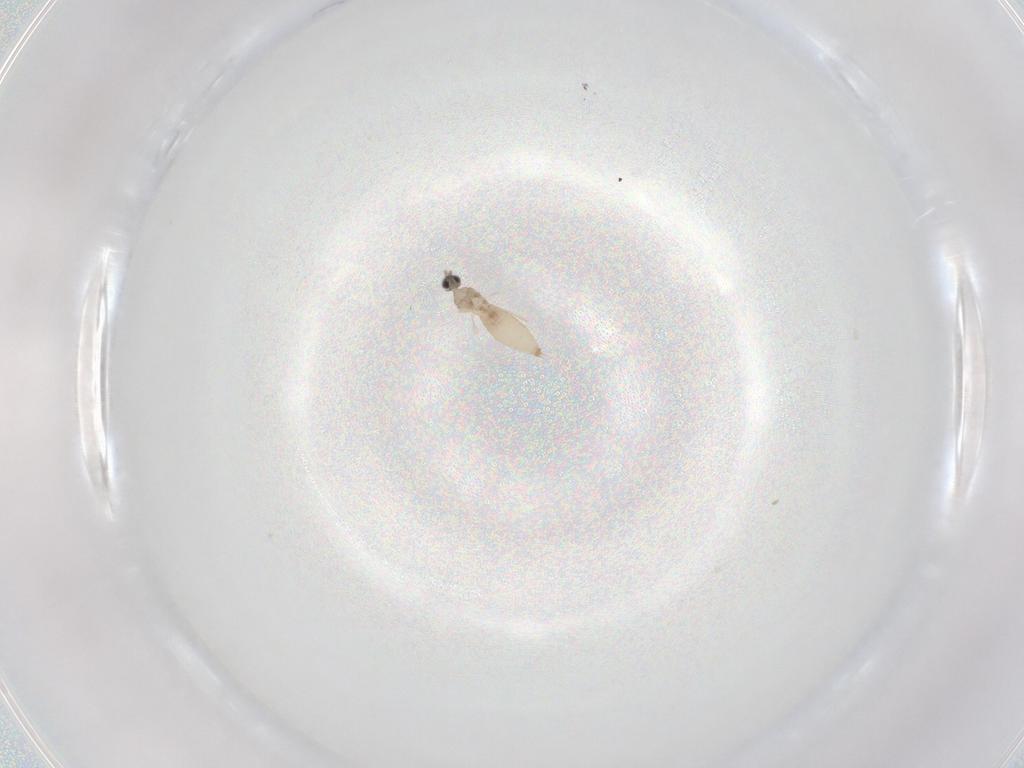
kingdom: Animalia
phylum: Arthropoda
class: Insecta
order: Diptera
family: Cecidomyiidae
